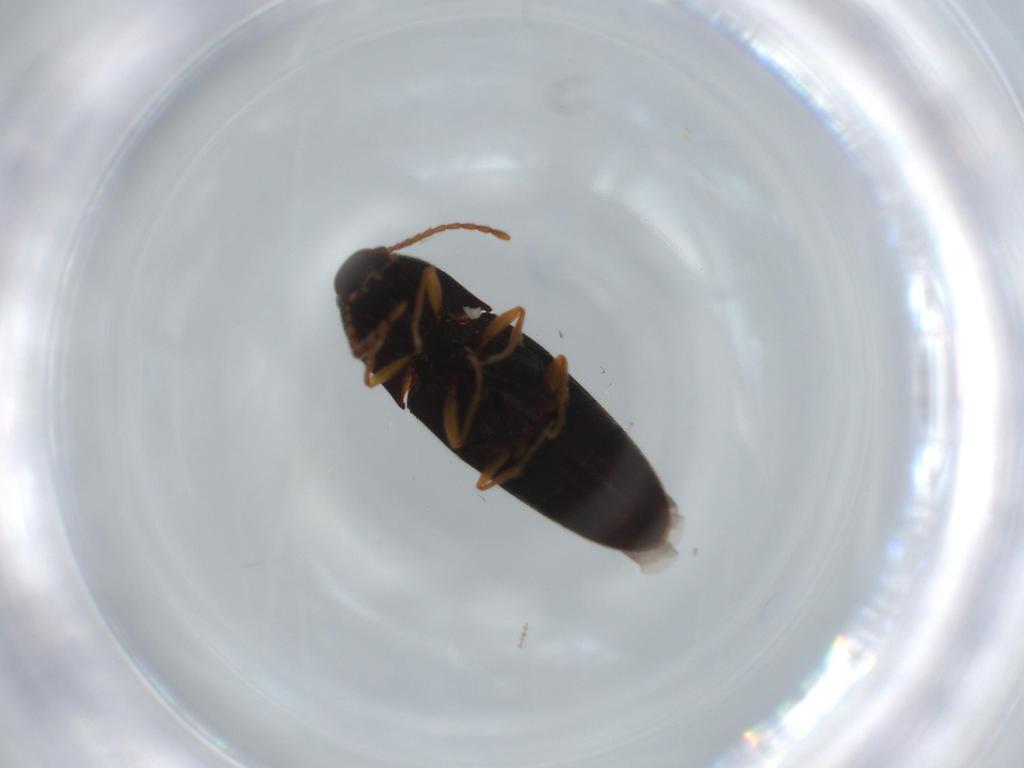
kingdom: Animalia
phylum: Arthropoda
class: Insecta
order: Coleoptera
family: Elateridae
